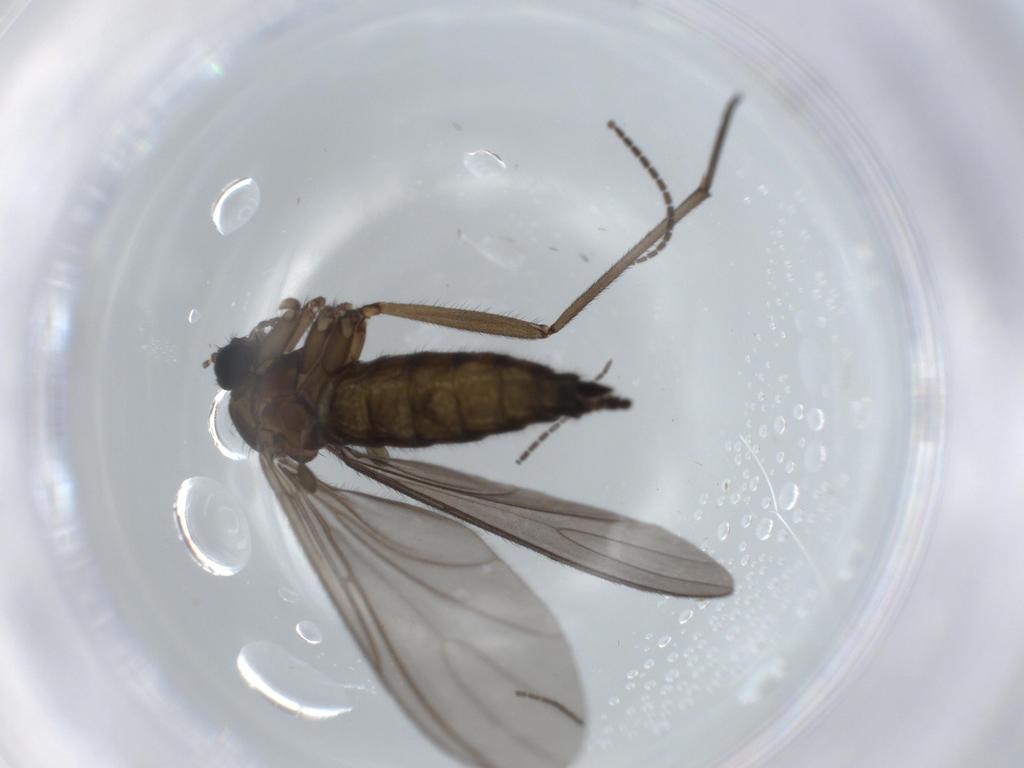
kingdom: Animalia
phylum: Arthropoda
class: Insecta
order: Diptera
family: Sciaridae
